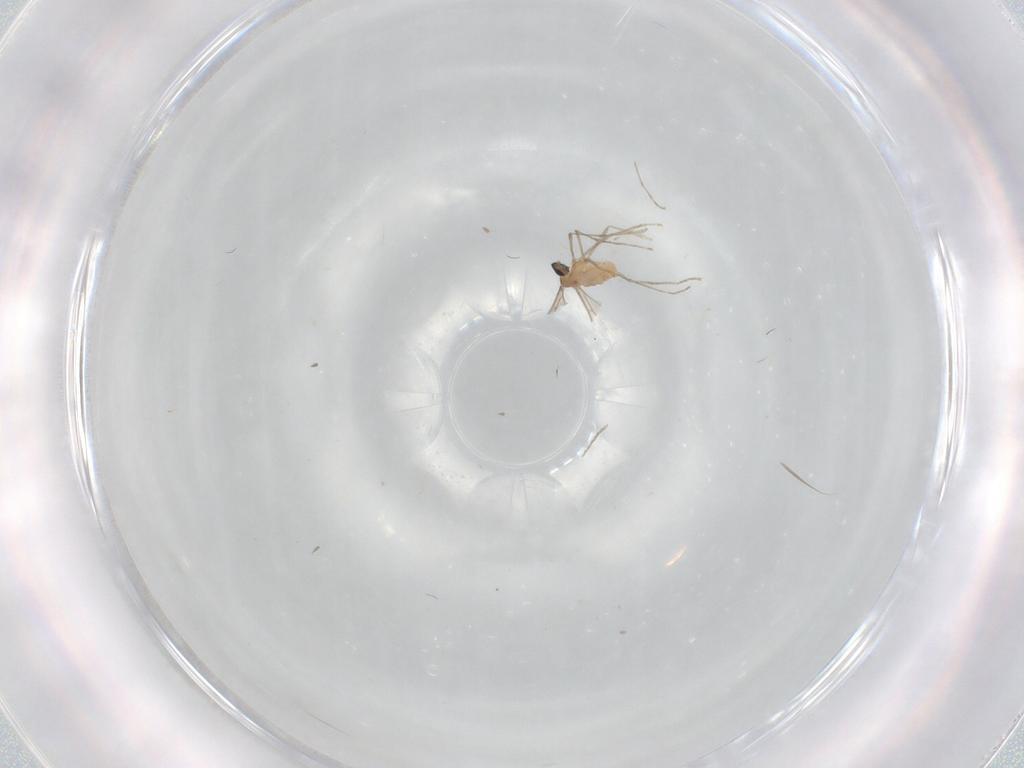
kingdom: Animalia
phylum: Arthropoda
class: Insecta
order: Diptera
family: Cecidomyiidae
